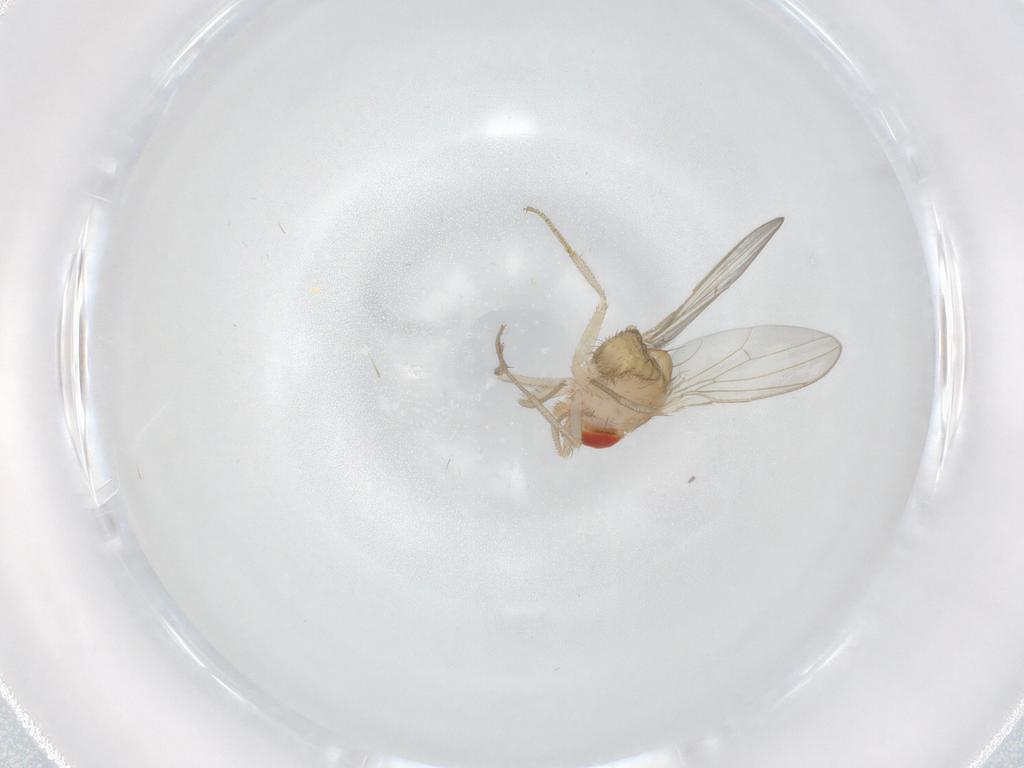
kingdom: Animalia
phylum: Arthropoda
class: Insecta
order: Diptera
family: Drosophilidae
